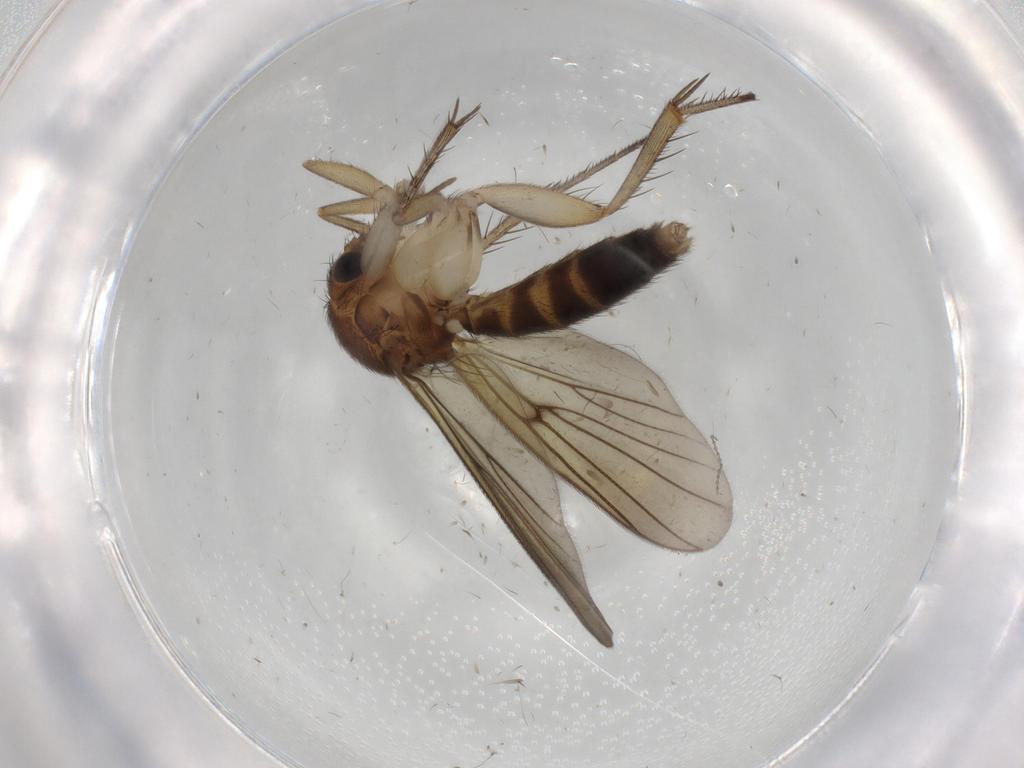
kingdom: Animalia
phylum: Arthropoda
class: Insecta
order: Diptera
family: Mycetophilidae
